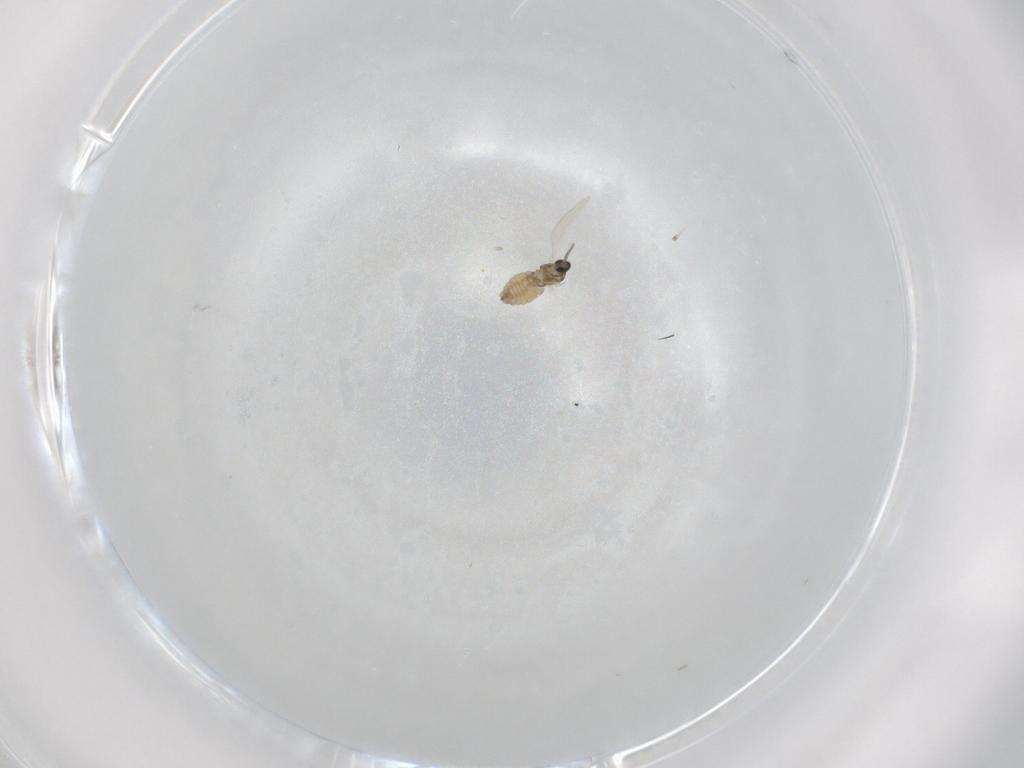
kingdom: Animalia
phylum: Arthropoda
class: Insecta
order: Diptera
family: Cecidomyiidae
